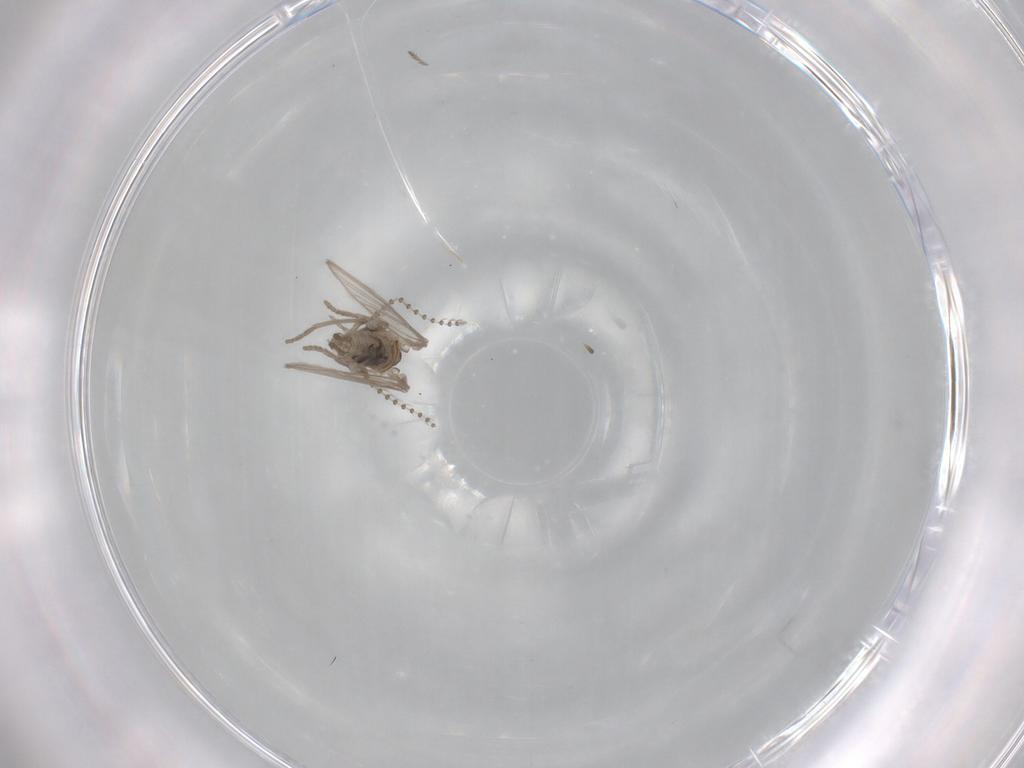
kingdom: Animalia
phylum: Arthropoda
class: Insecta
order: Diptera
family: Psychodidae
